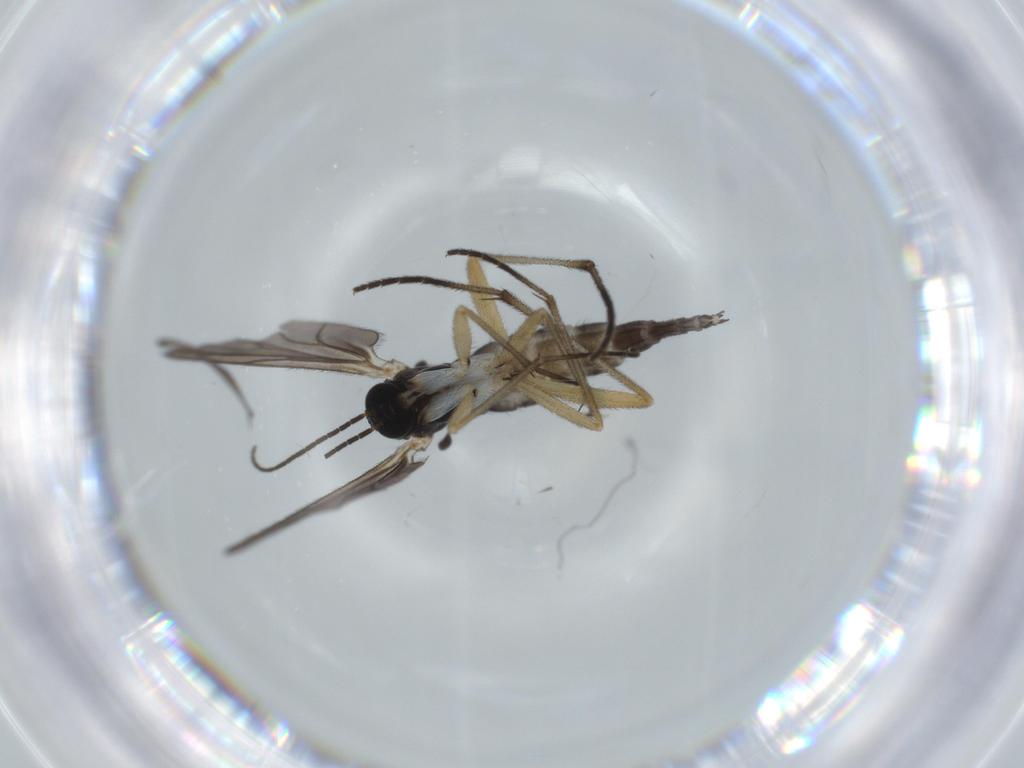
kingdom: Animalia
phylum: Arthropoda
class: Insecta
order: Diptera
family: Sciaridae
